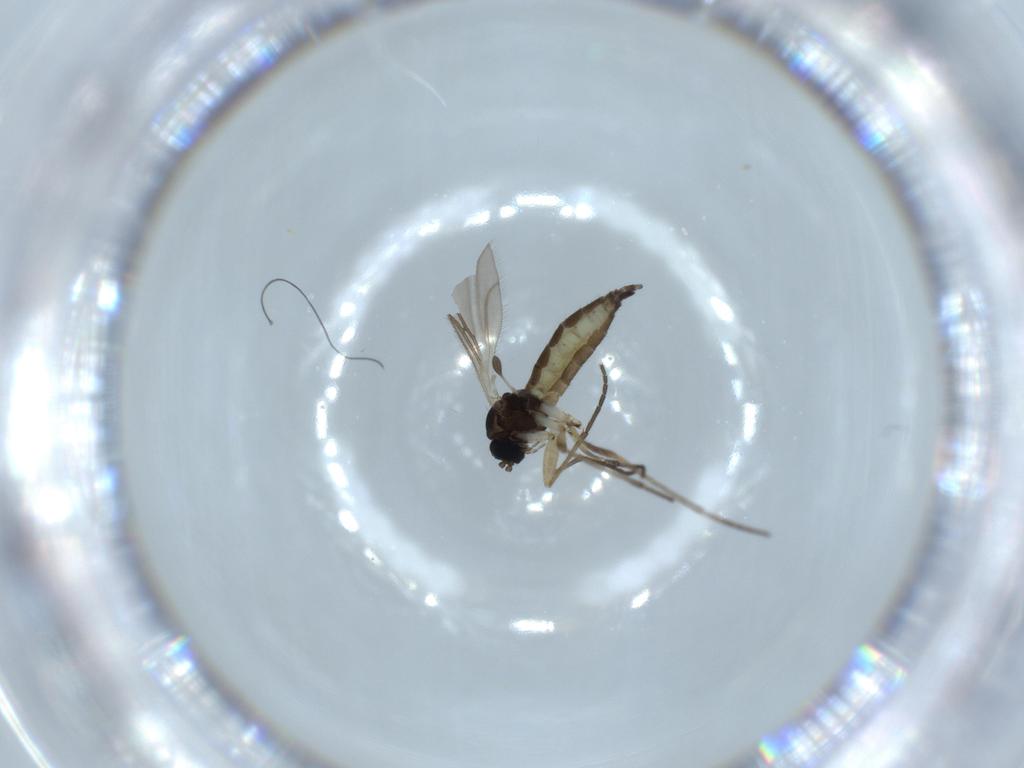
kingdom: Animalia
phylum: Arthropoda
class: Insecta
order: Diptera
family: Sciaridae
